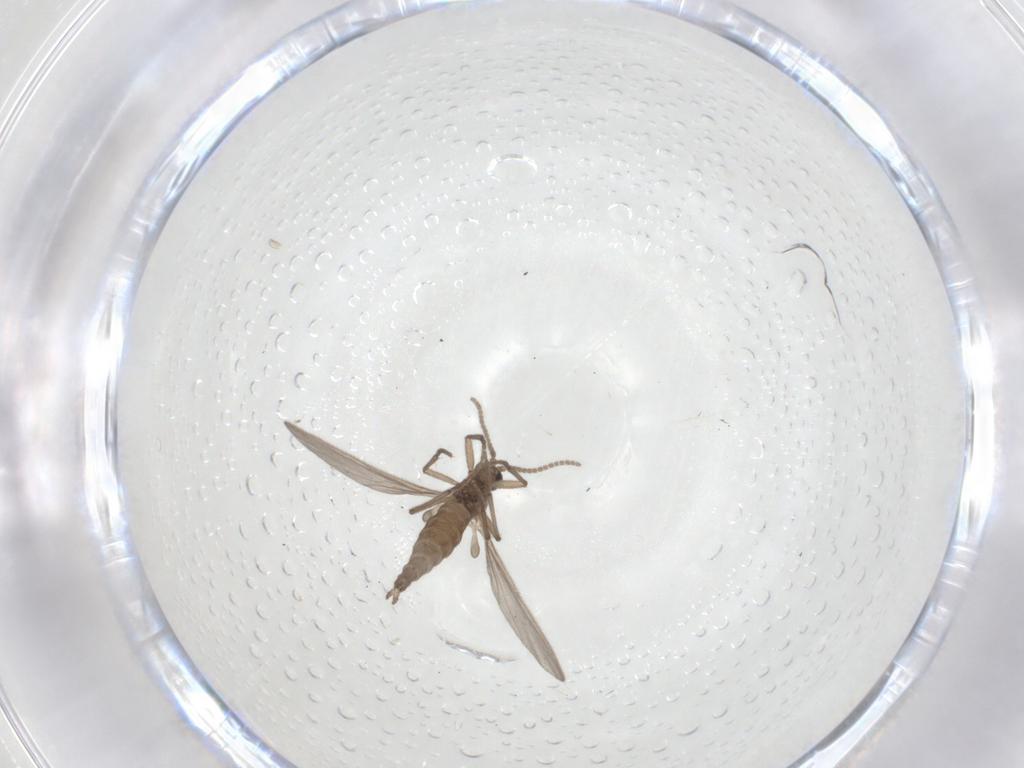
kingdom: Animalia
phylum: Arthropoda
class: Insecta
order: Diptera
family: Sciaridae
